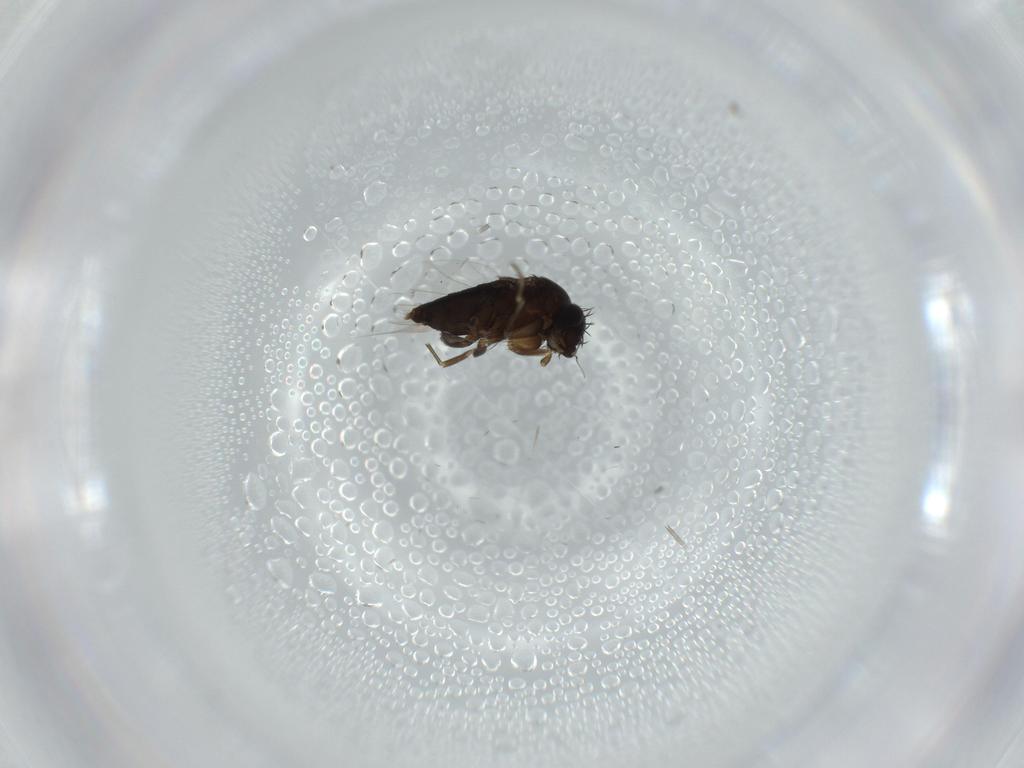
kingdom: Animalia
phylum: Arthropoda
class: Insecta
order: Diptera
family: Phoridae
